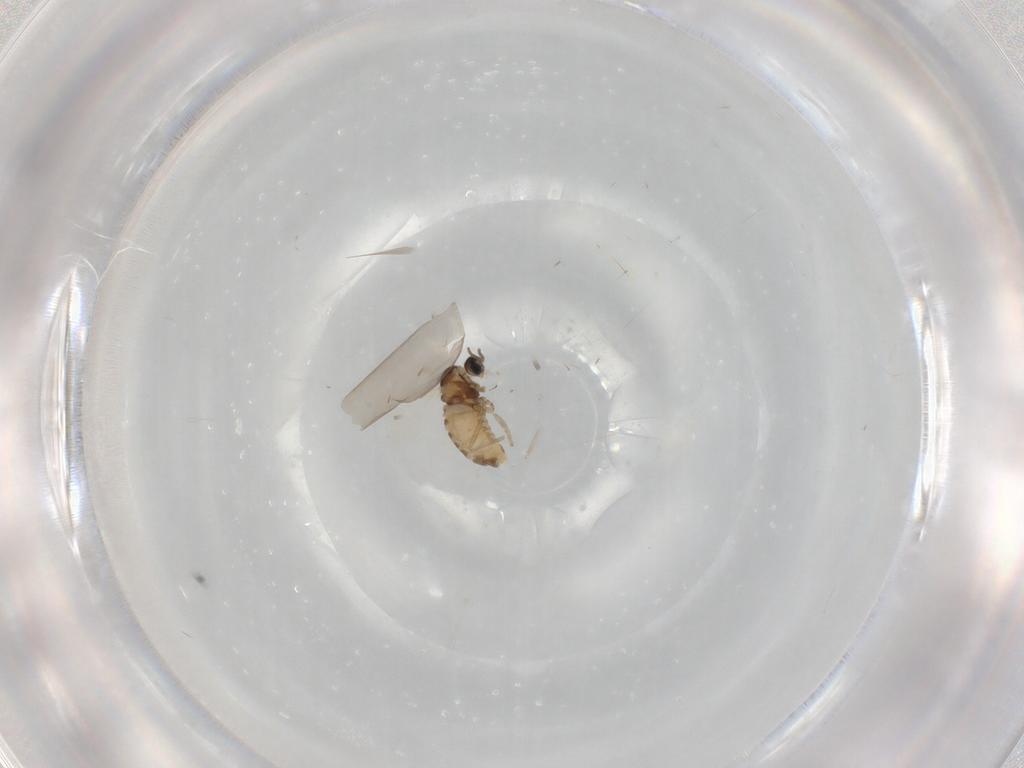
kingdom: Animalia
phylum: Arthropoda
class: Insecta
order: Diptera
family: Cecidomyiidae
